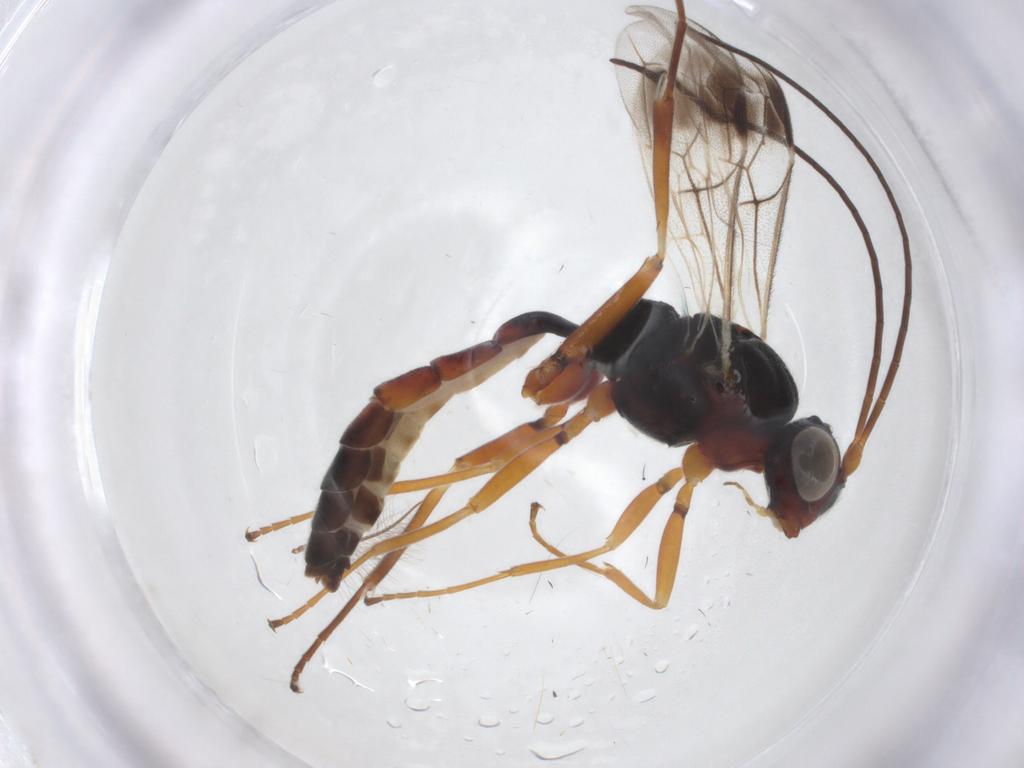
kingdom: Animalia
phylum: Arthropoda
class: Insecta
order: Hymenoptera
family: Ichneumonidae
